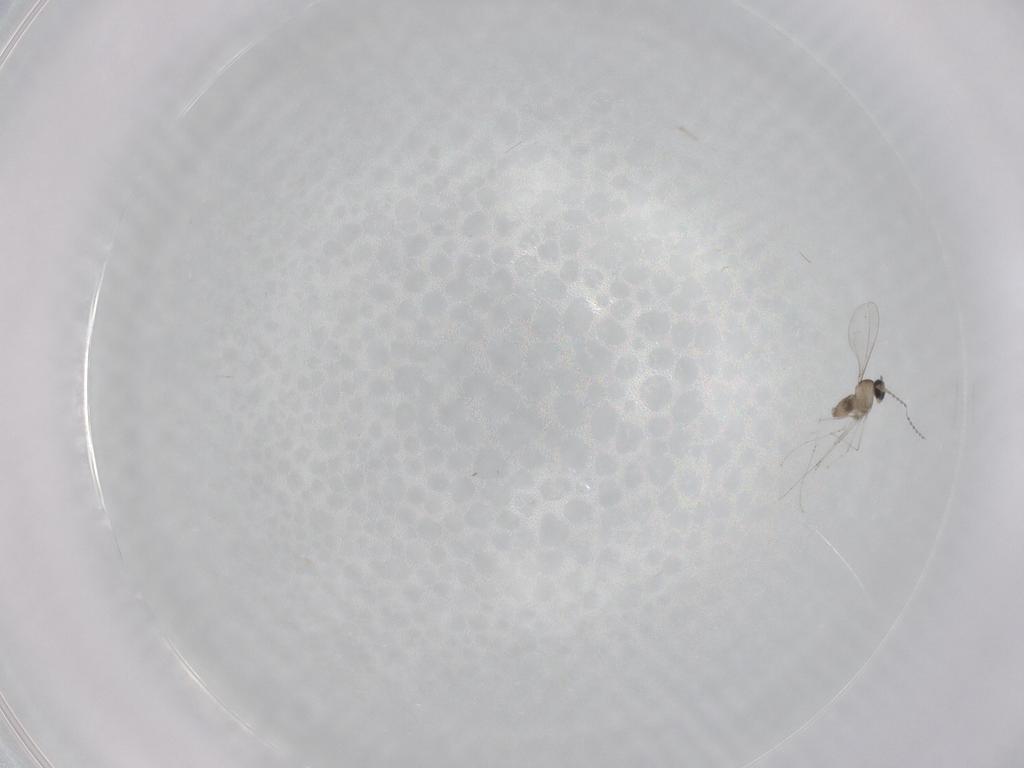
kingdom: Animalia
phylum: Arthropoda
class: Insecta
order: Diptera
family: Cecidomyiidae
